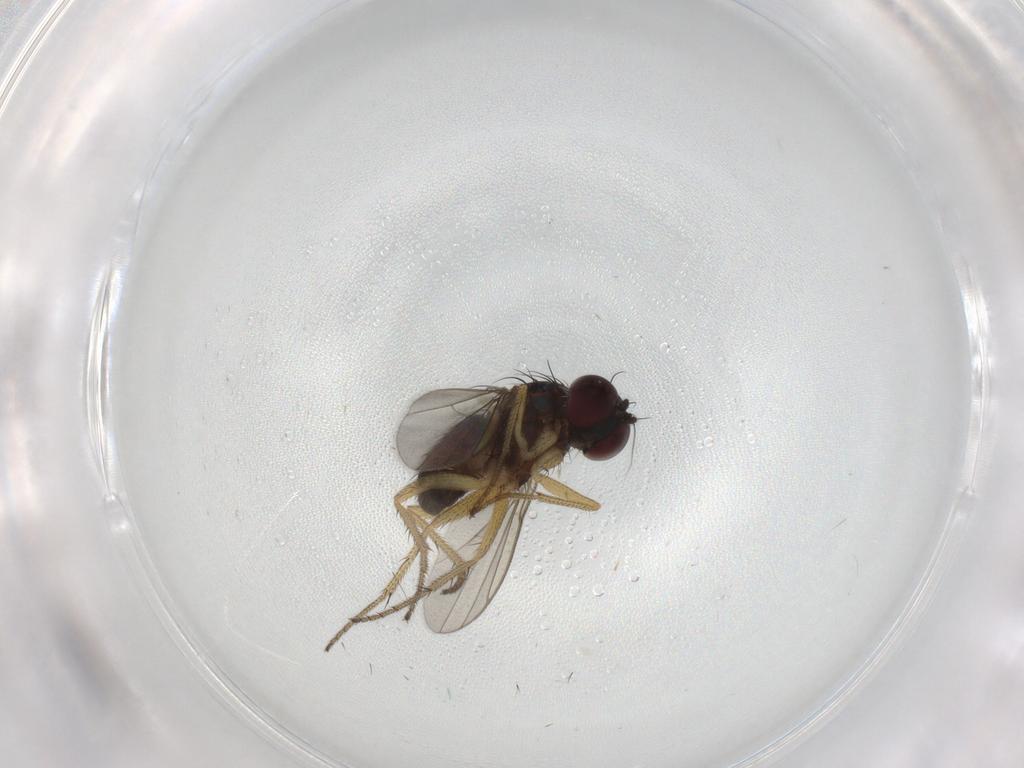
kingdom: Animalia
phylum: Arthropoda
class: Insecta
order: Diptera
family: Dolichopodidae
